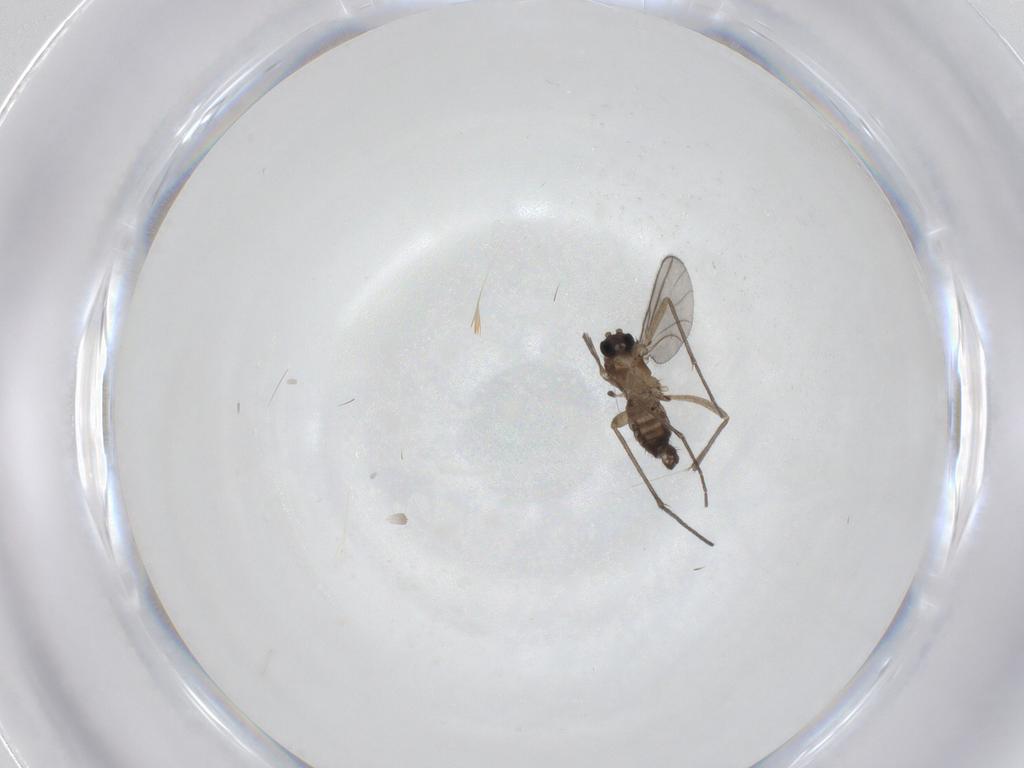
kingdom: Animalia
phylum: Arthropoda
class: Insecta
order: Diptera
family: Sciaridae
